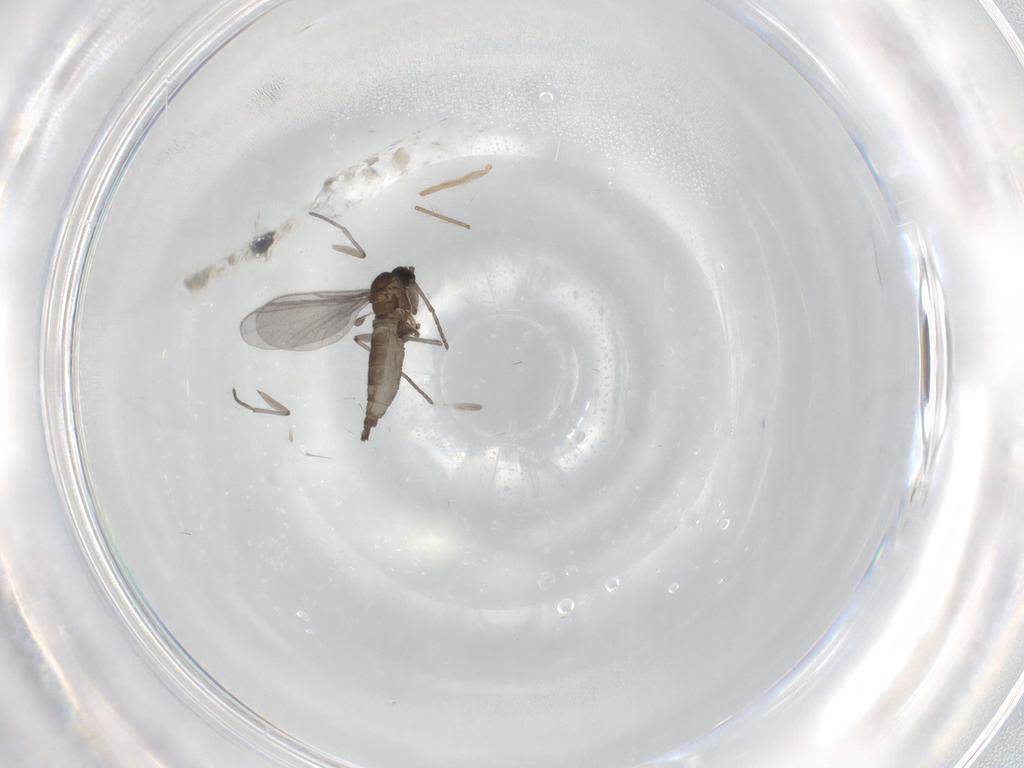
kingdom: Animalia
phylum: Arthropoda
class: Insecta
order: Diptera
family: Sciaridae
